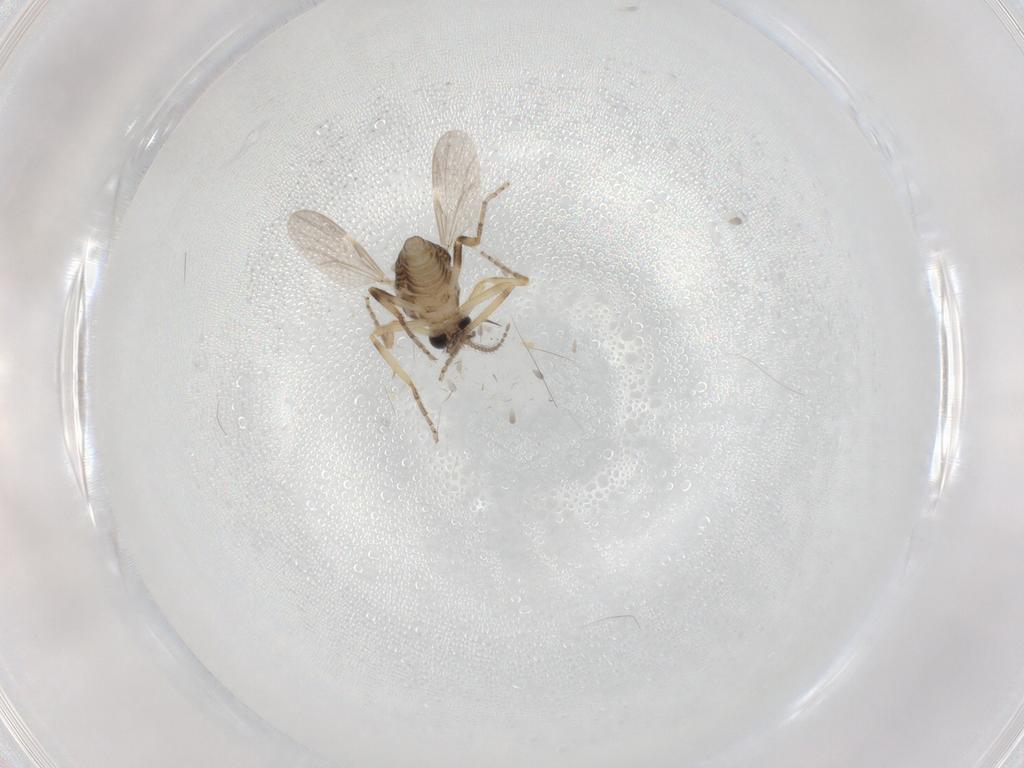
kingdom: Animalia
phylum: Arthropoda
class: Insecta
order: Diptera
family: Ceratopogonidae
